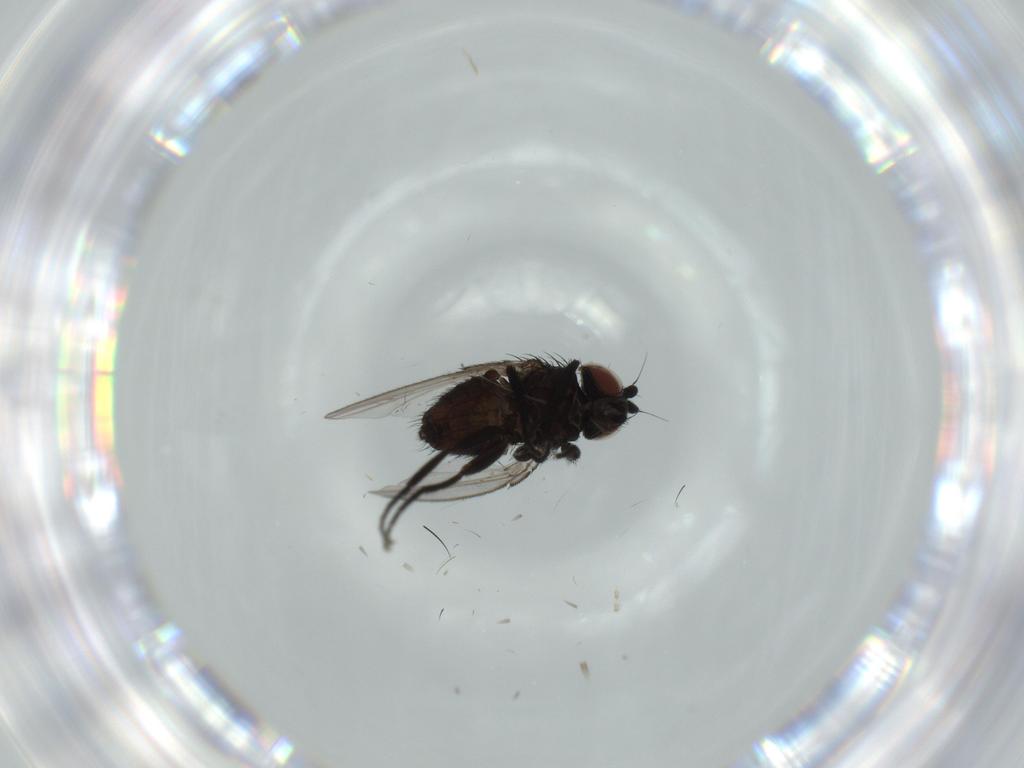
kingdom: Animalia
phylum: Arthropoda
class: Insecta
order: Diptera
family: Milichiidae
